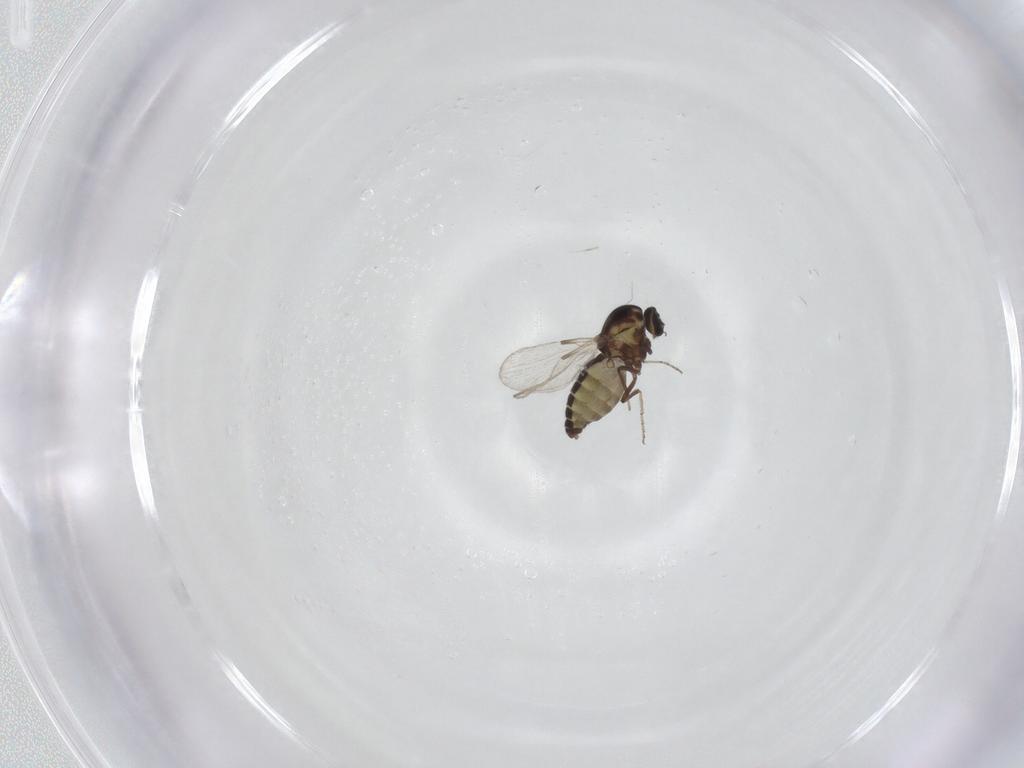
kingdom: Animalia
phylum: Arthropoda
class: Insecta
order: Diptera
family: Ceratopogonidae
